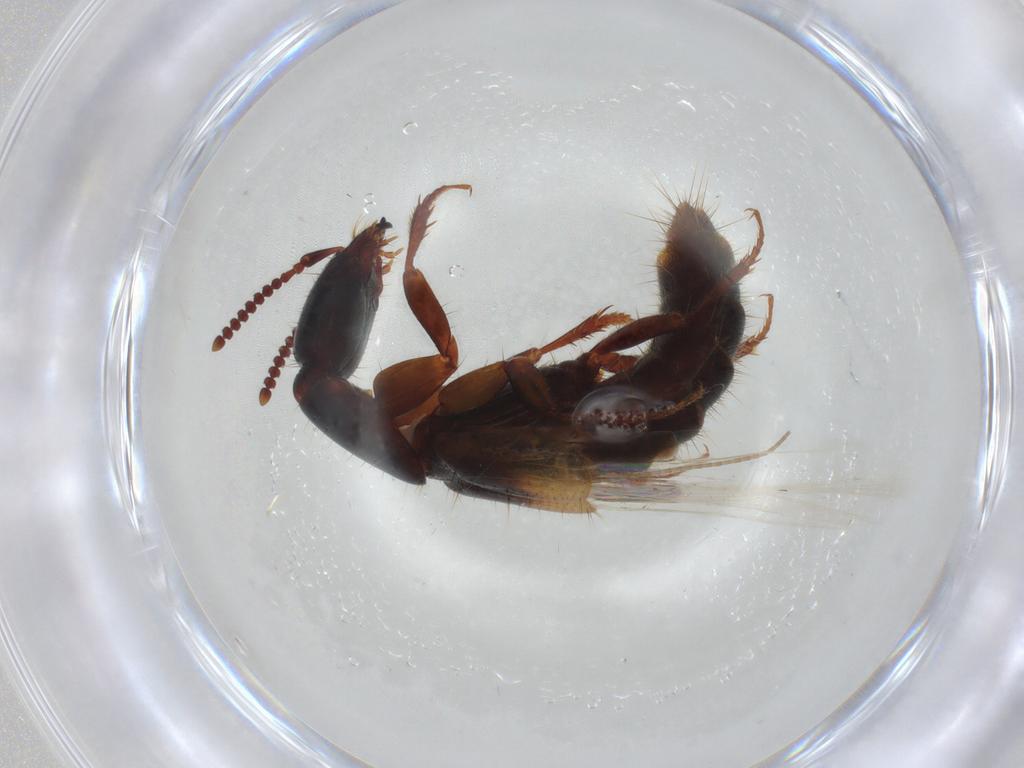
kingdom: Animalia
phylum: Arthropoda
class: Insecta
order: Coleoptera
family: Staphylinidae
